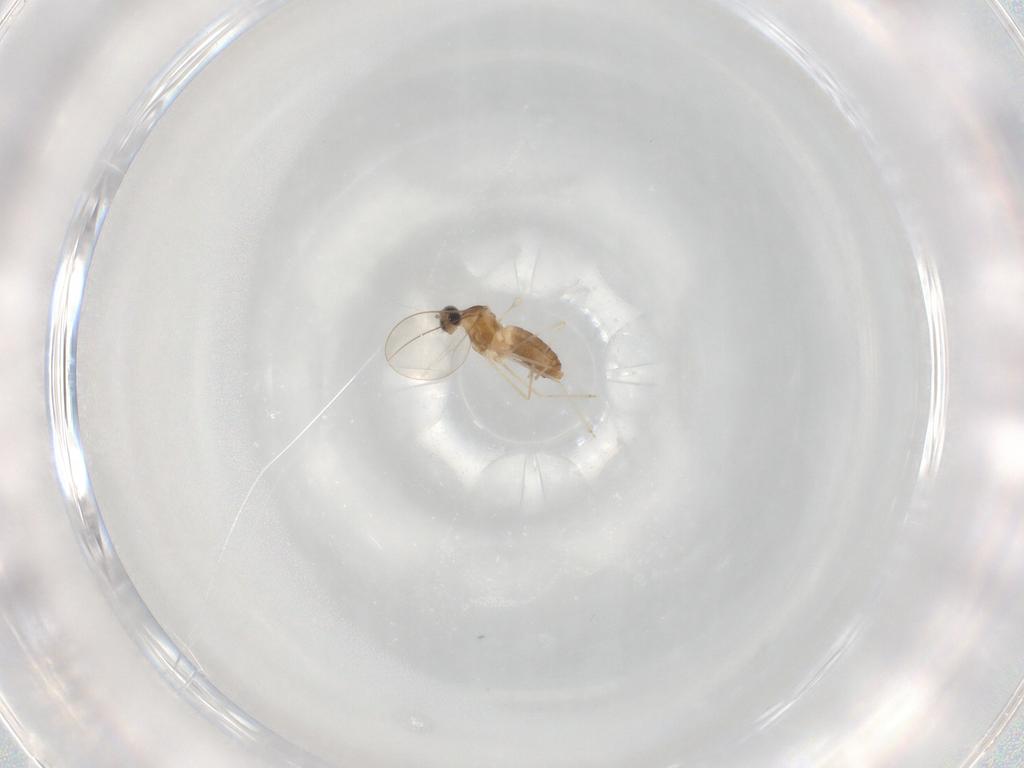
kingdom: Animalia
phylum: Arthropoda
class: Insecta
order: Diptera
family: Cecidomyiidae
